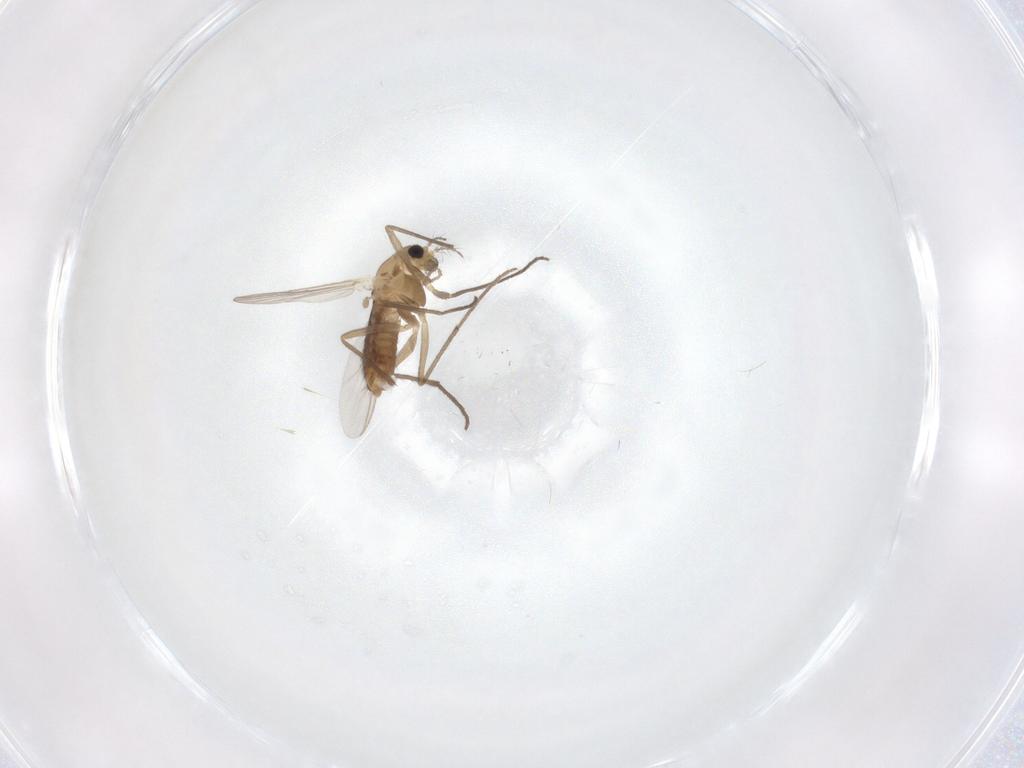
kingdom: Animalia
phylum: Arthropoda
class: Insecta
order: Diptera
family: Chironomidae
